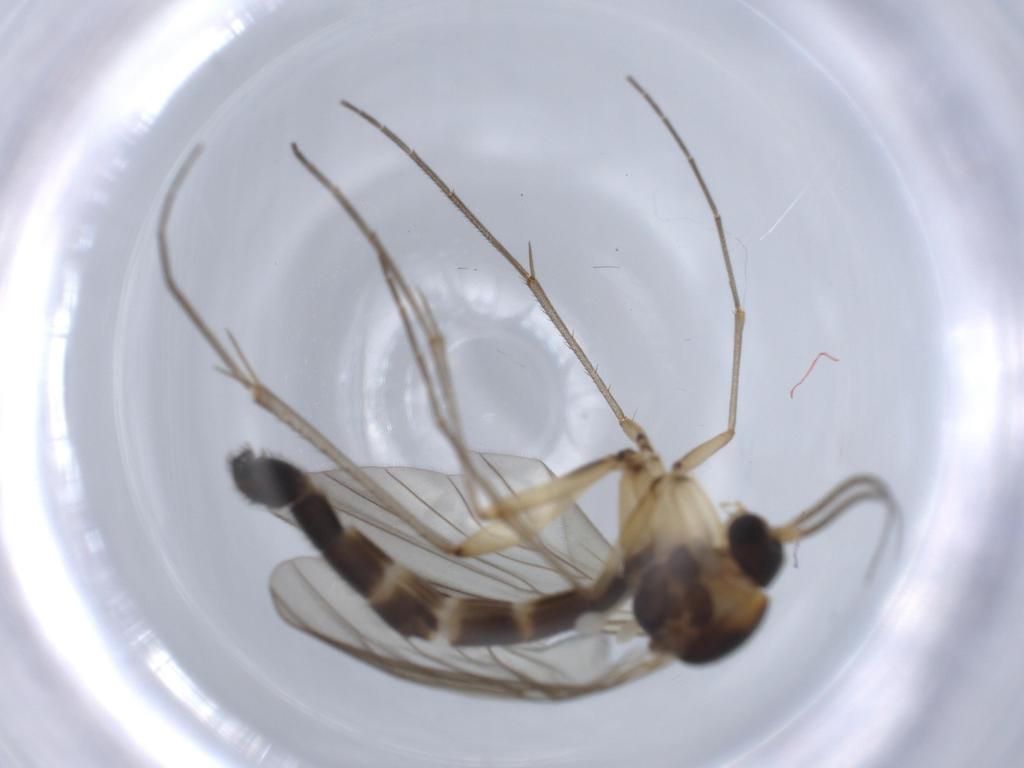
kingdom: Animalia
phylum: Arthropoda
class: Insecta
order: Diptera
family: Mycetophilidae
